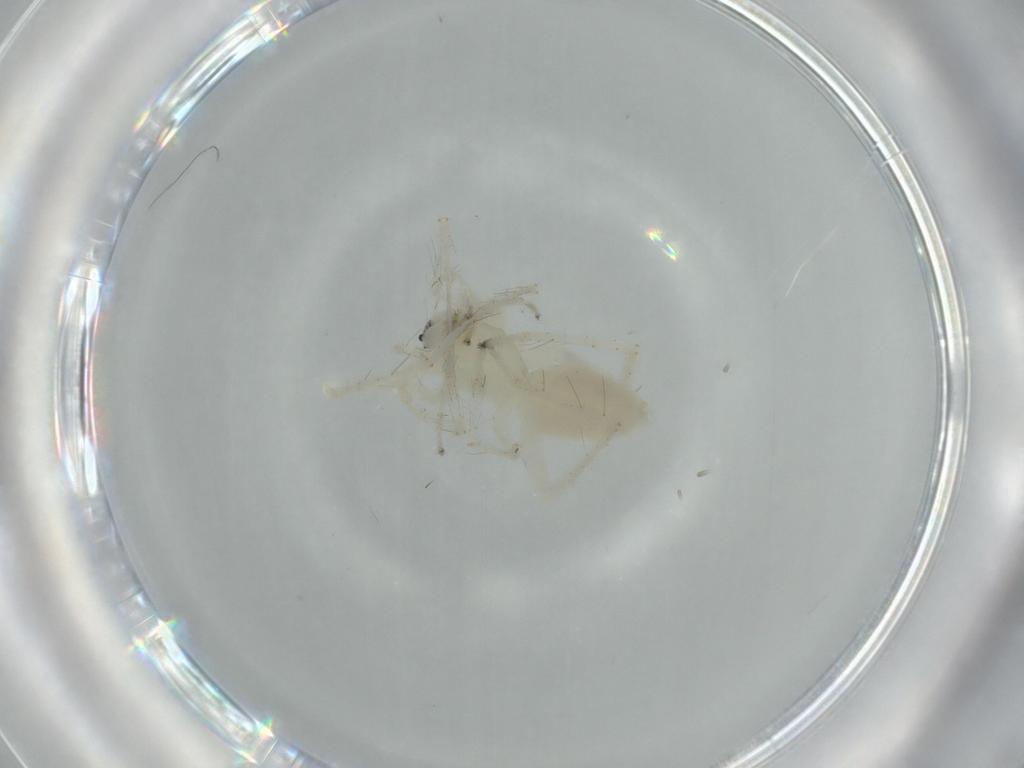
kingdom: Animalia
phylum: Arthropoda
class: Arachnida
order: Araneae
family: Anyphaenidae
